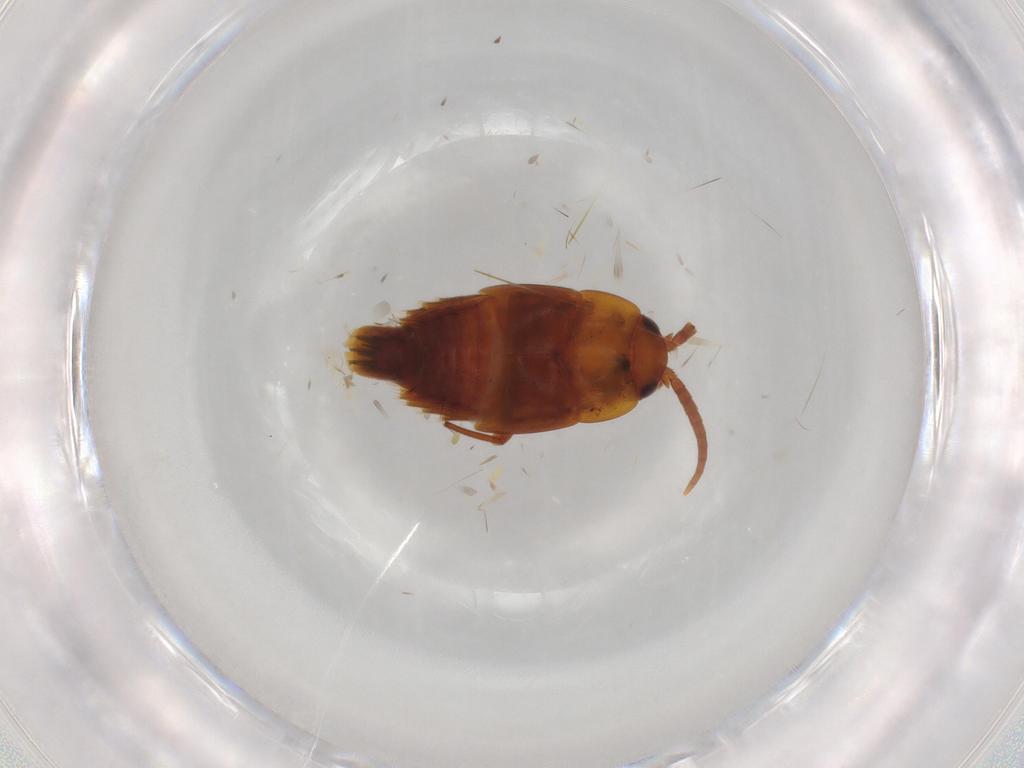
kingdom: Animalia
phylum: Arthropoda
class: Insecta
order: Coleoptera
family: Staphylinidae
